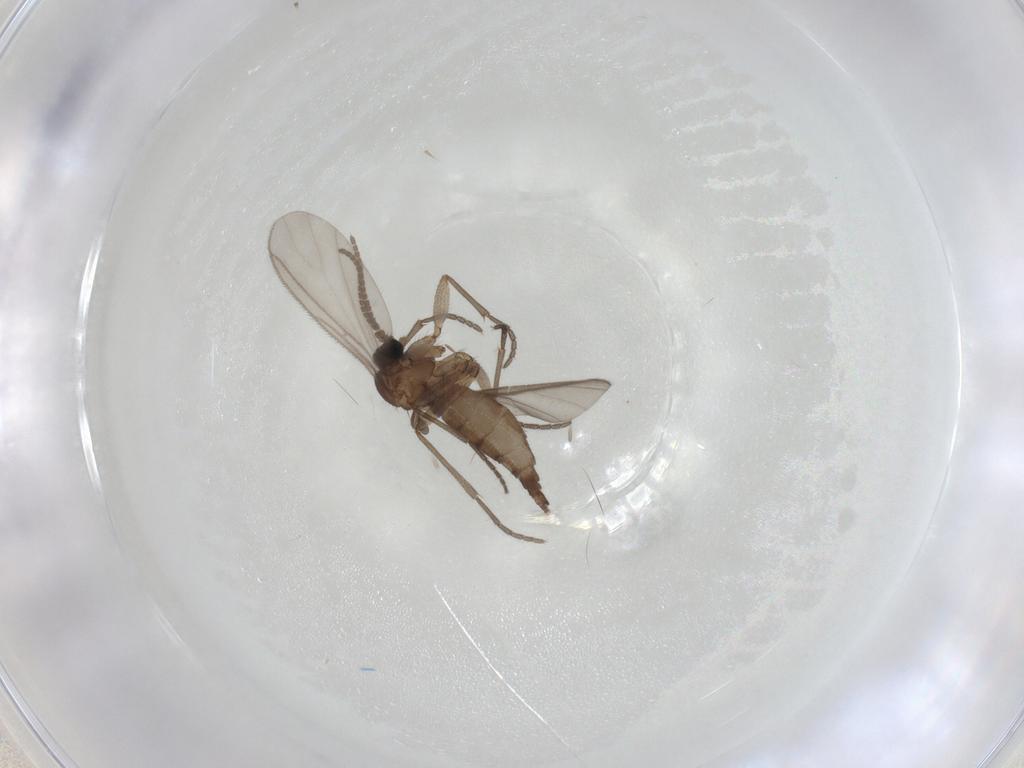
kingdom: Animalia
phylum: Arthropoda
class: Insecta
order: Diptera
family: Sciaridae
